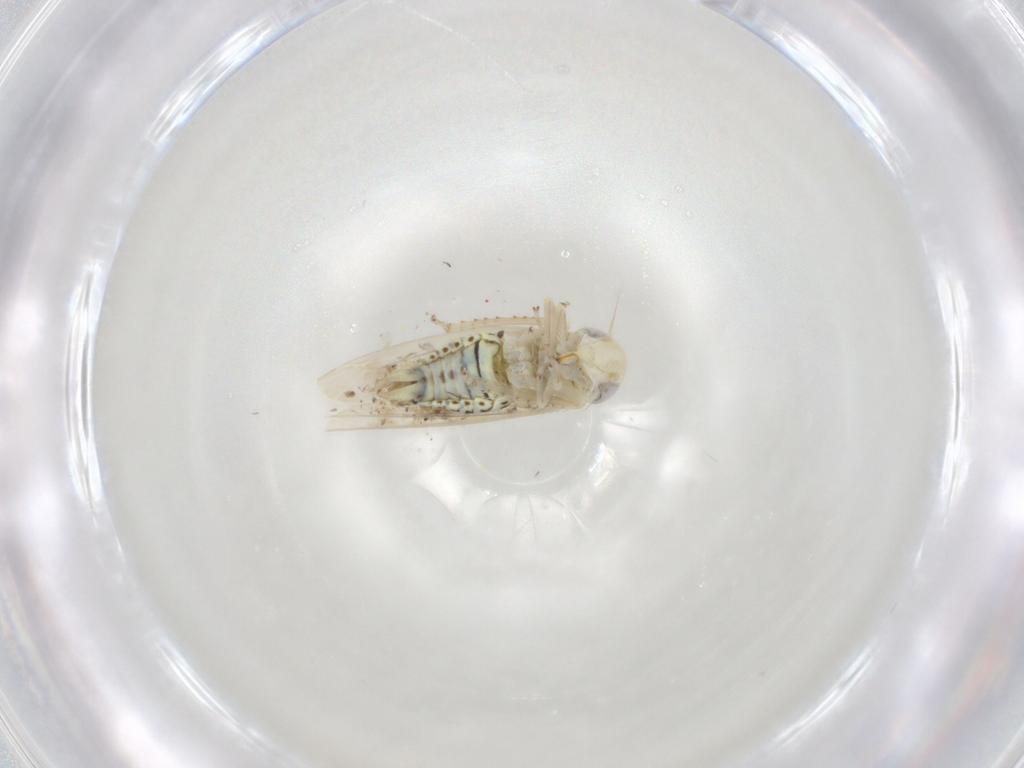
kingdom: Animalia
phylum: Arthropoda
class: Insecta
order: Hemiptera
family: Cicadellidae
